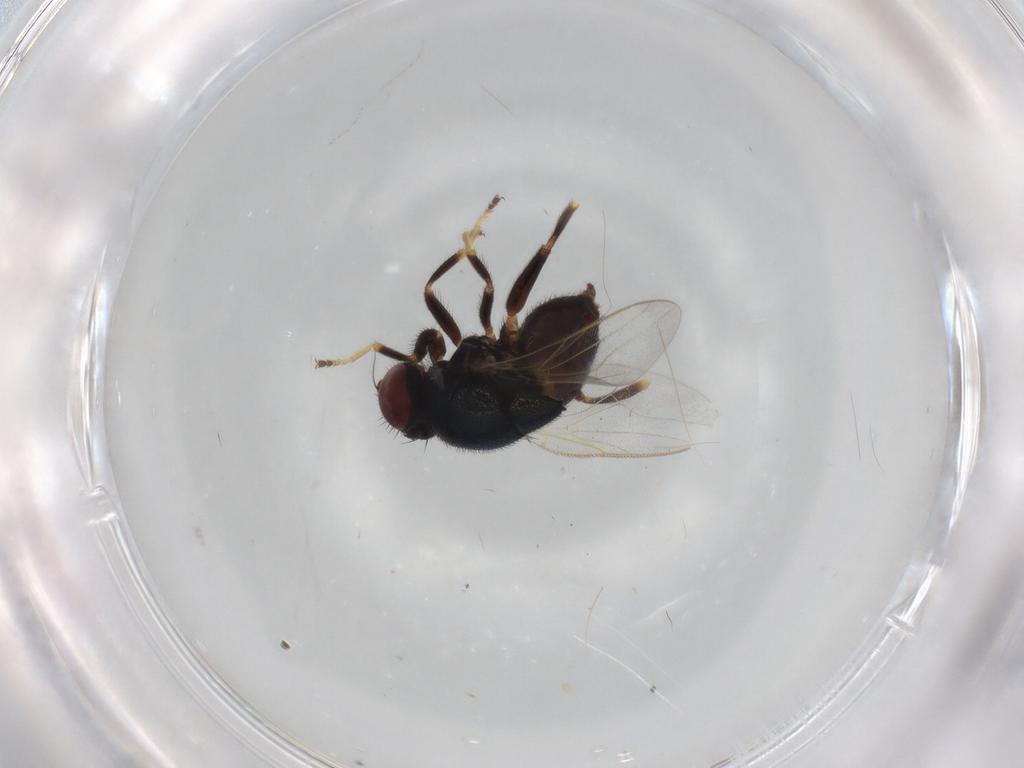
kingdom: Animalia
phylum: Arthropoda
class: Insecta
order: Diptera
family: Chloropidae
